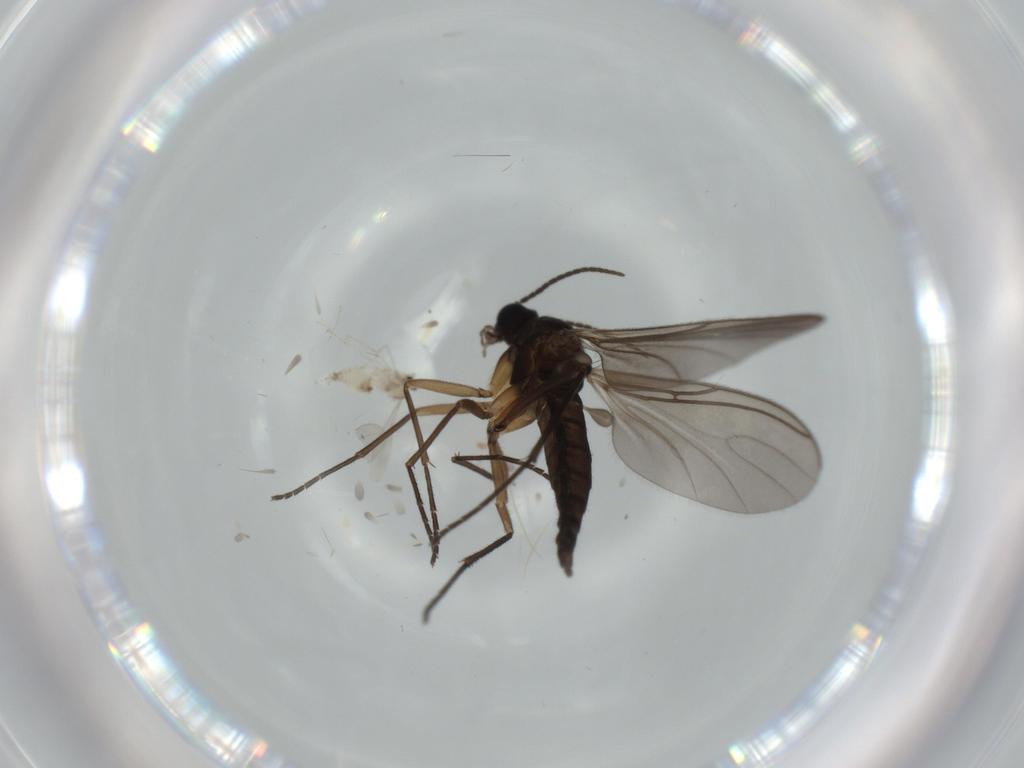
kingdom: Animalia
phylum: Arthropoda
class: Insecta
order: Diptera
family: Cecidomyiidae
